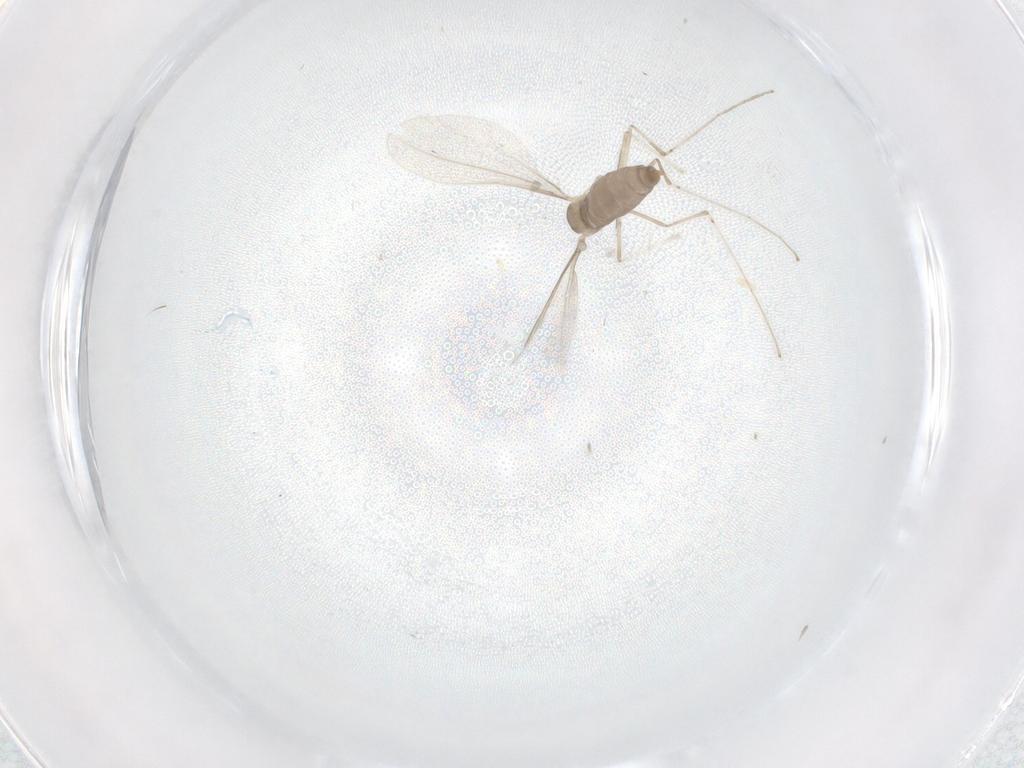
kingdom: Animalia
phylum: Arthropoda
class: Insecta
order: Diptera
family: Cecidomyiidae
